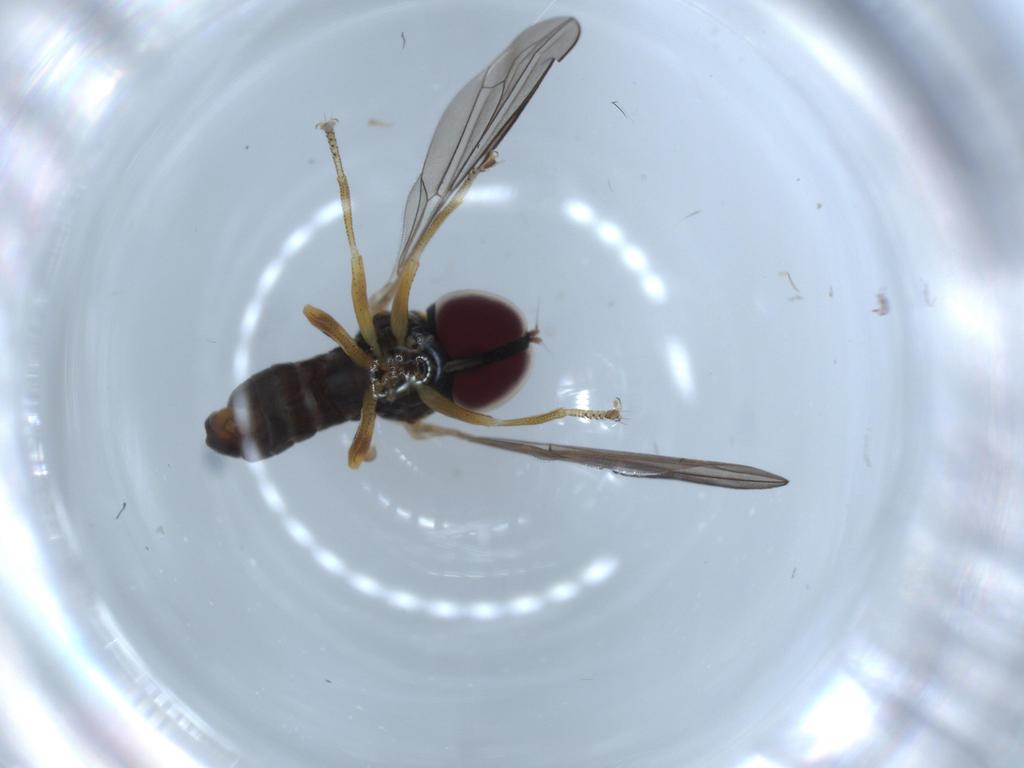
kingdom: Animalia
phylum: Arthropoda
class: Insecta
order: Diptera
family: Pipunculidae
